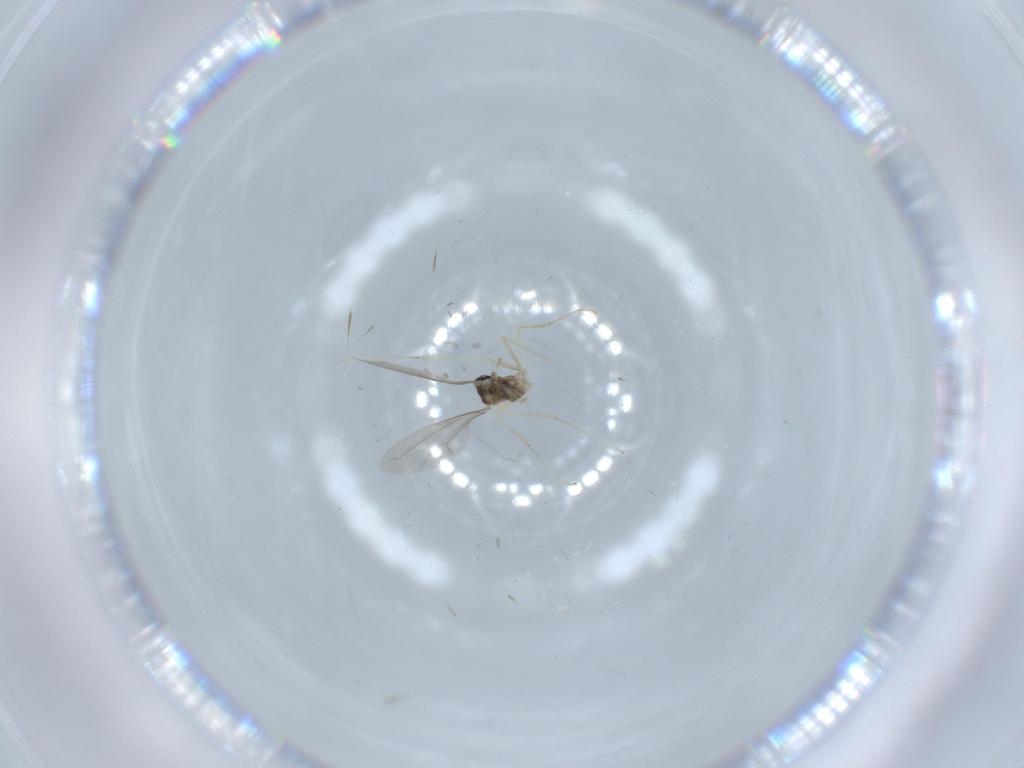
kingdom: Animalia
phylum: Arthropoda
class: Insecta
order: Diptera
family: Cecidomyiidae
